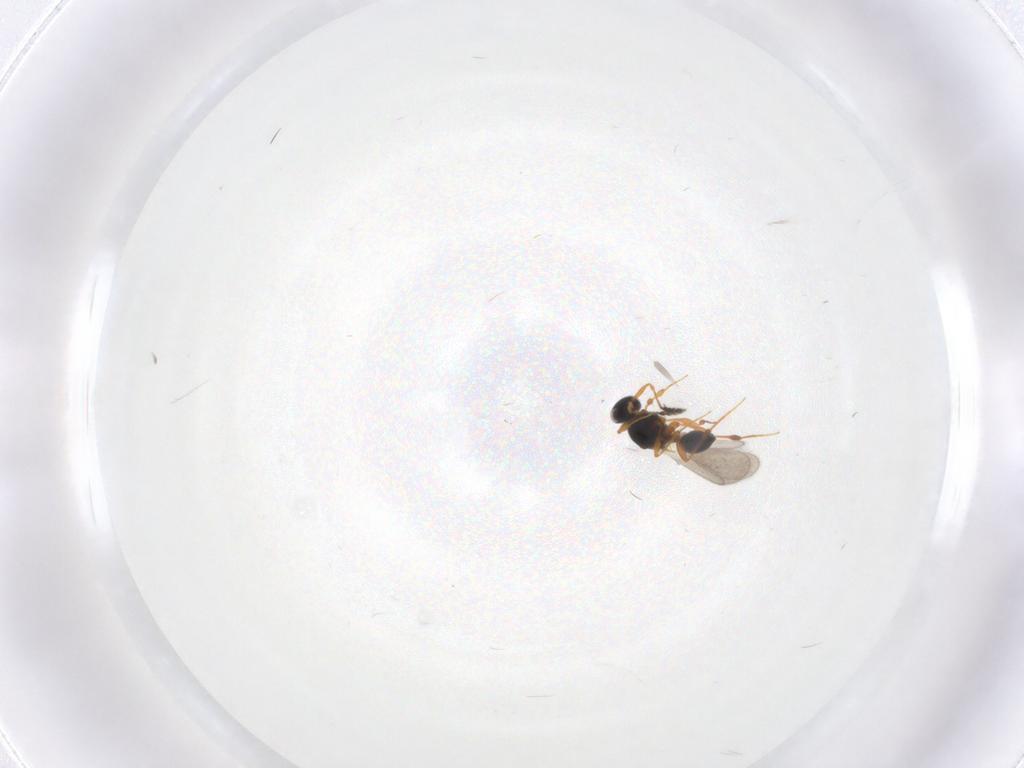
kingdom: Animalia
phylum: Arthropoda
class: Insecta
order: Hymenoptera
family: Platygastridae
